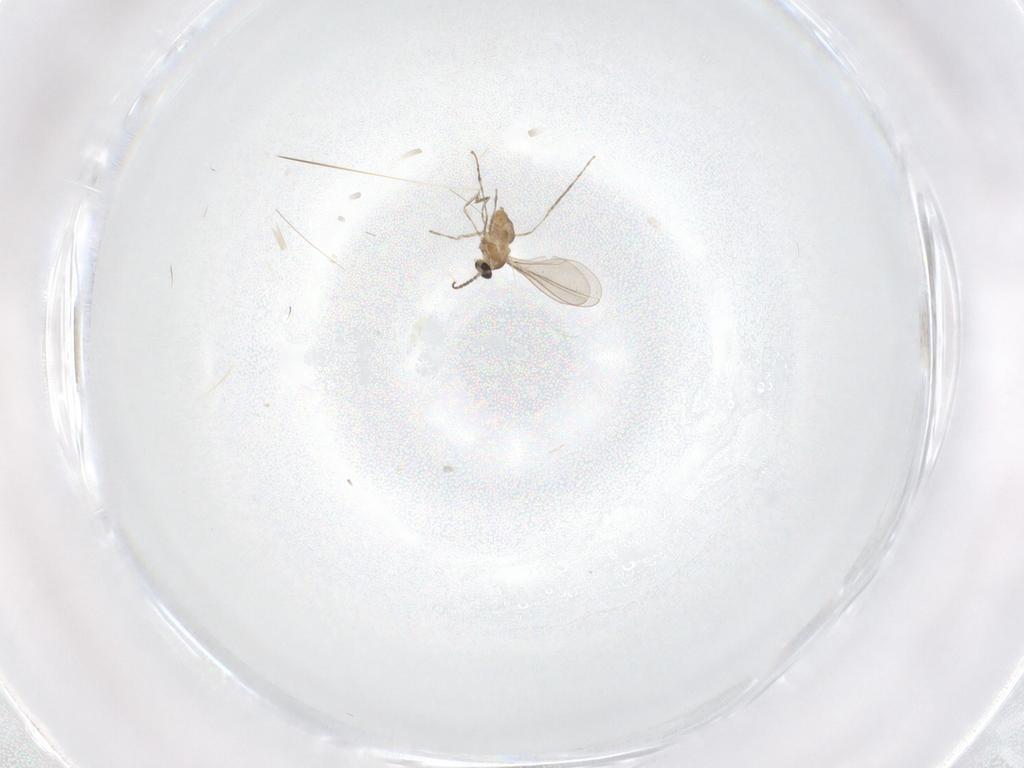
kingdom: Animalia
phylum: Arthropoda
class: Insecta
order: Diptera
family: Cecidomyiidae
